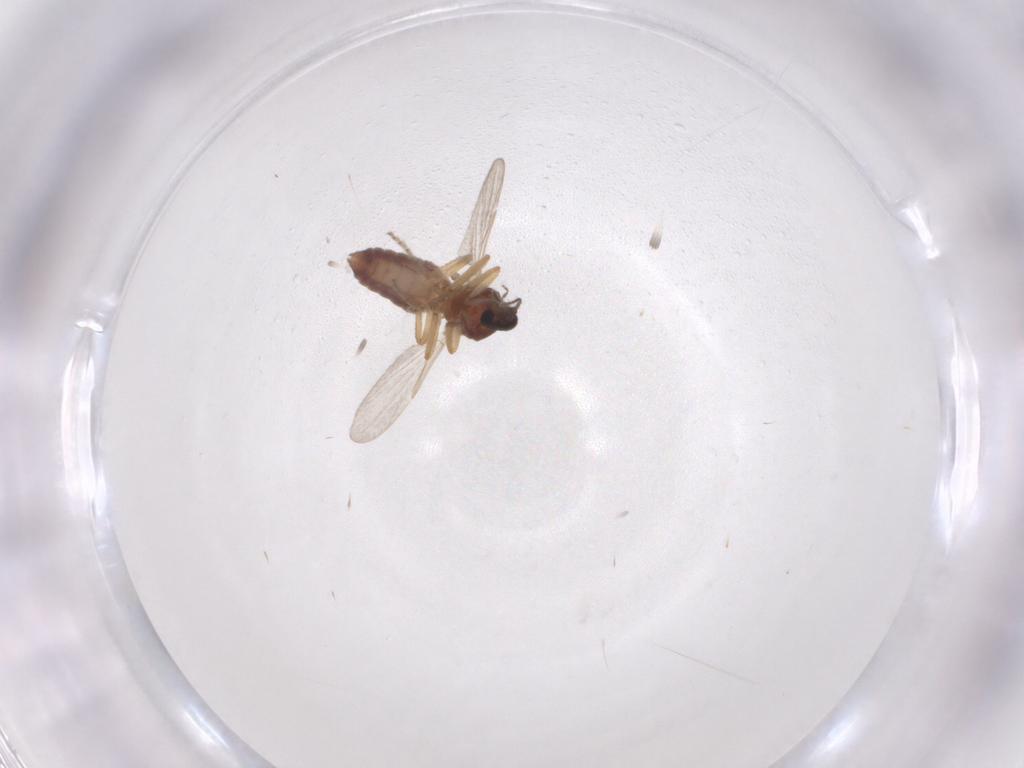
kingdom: Animalia
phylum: Arthropoda
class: Insecta
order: Diptera
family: Ceratopogonidae
